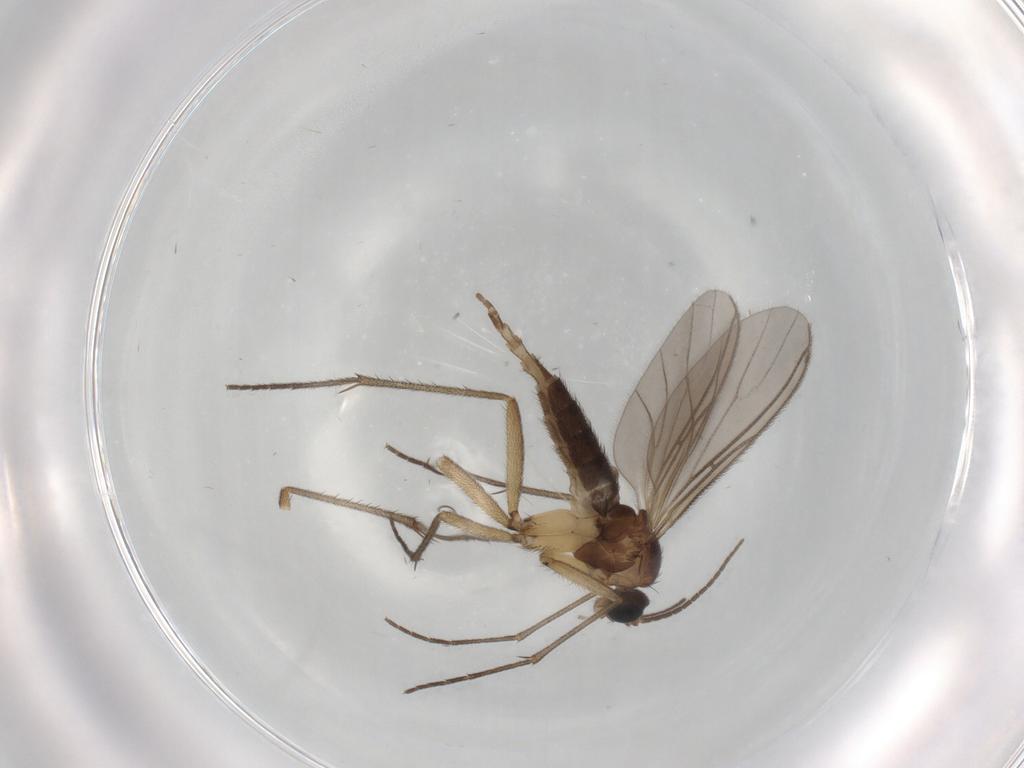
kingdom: Animalia
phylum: Arthropoda
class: Insecta
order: Diptera
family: Sciaridae
